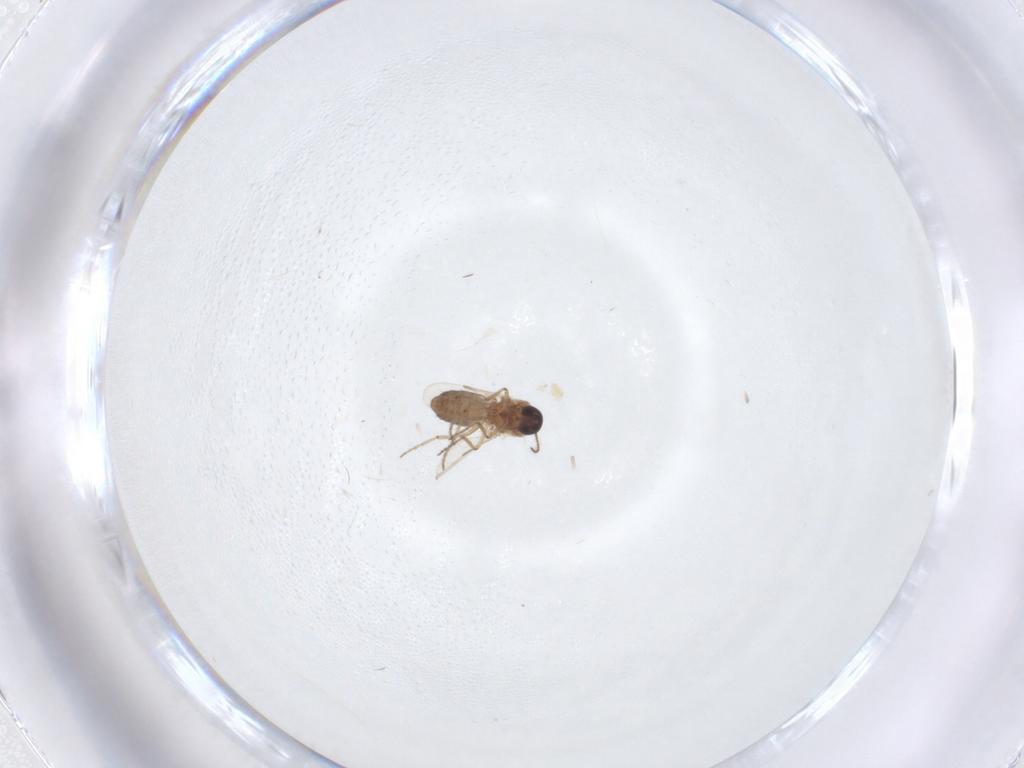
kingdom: Animalia
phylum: Arthropoda
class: Insecta
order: Diptera
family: Ceratopogonidae
